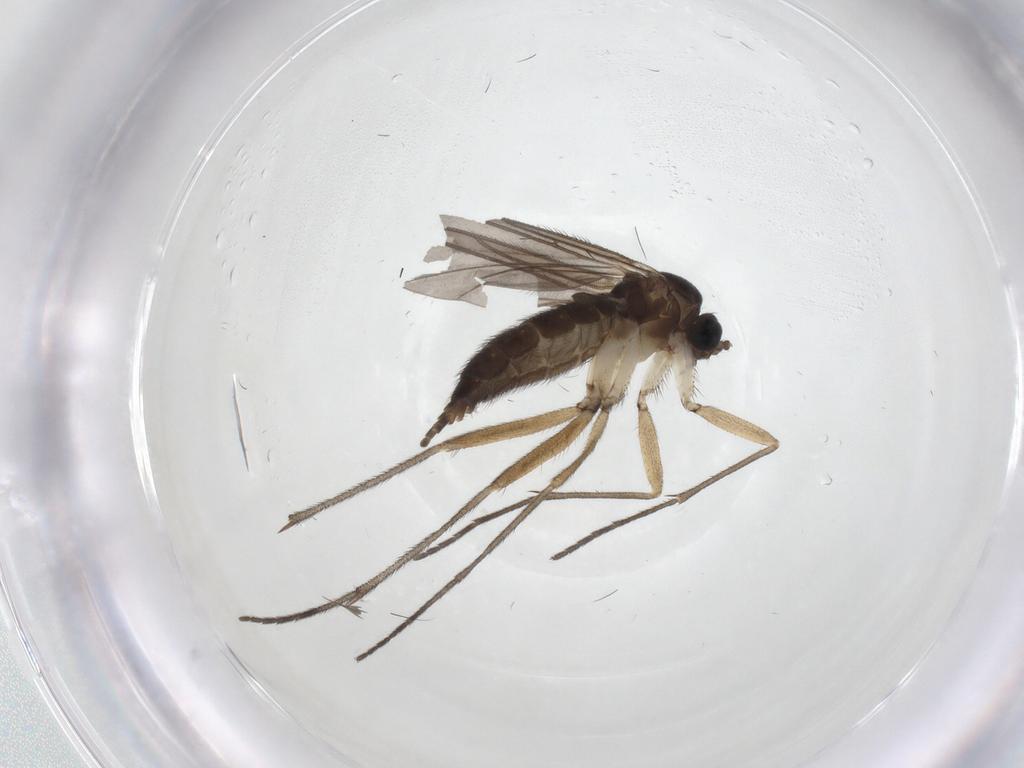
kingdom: Animalia
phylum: Arthropoda
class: Insecta
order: Diptera
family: Sciaridae
